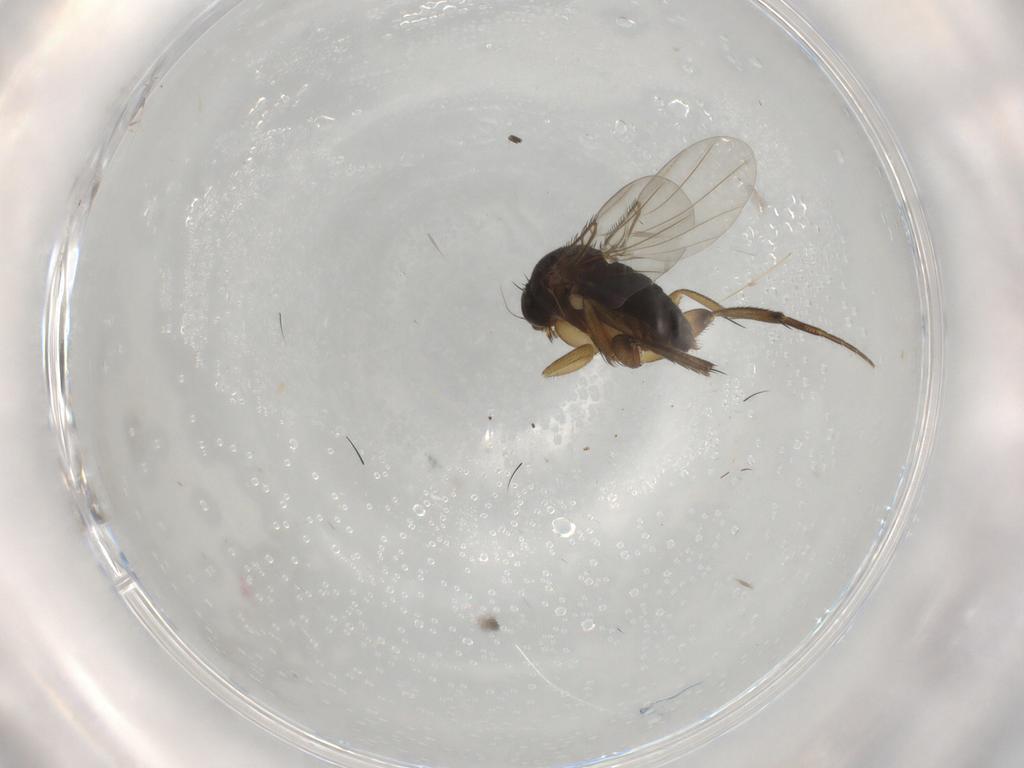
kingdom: Animalia
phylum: Arthropoda
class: Insecta
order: Diptera
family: Phoridae
